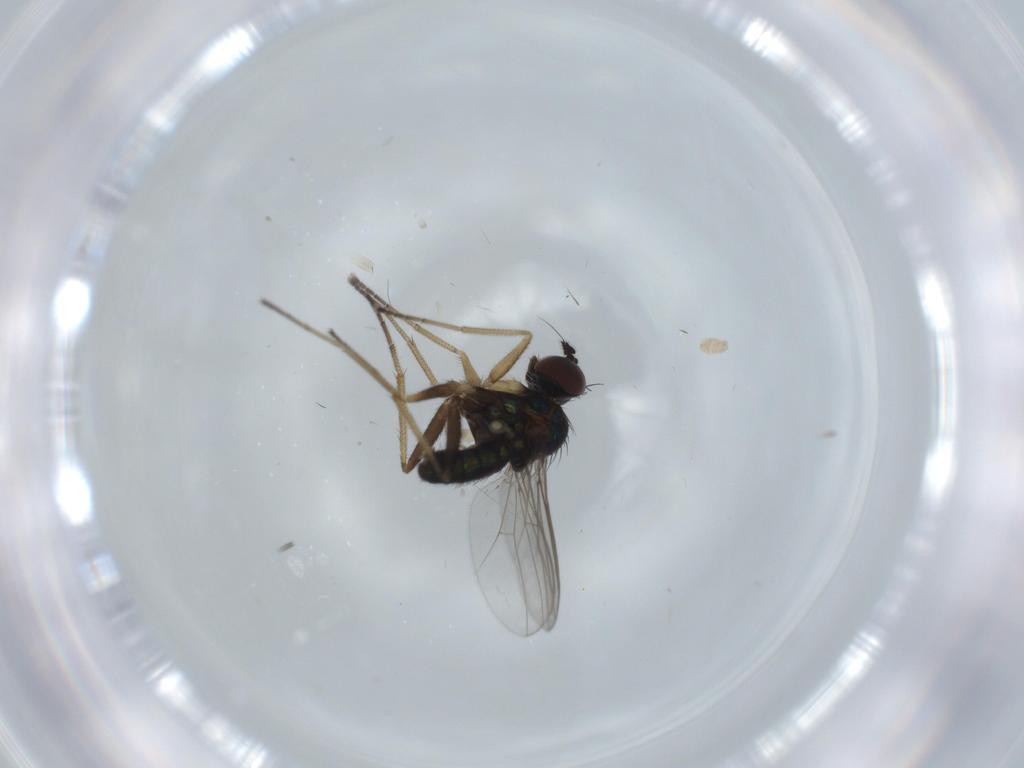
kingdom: Animalia
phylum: Arthropoda
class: Insecta
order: Diptera
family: Dolichopodidae
